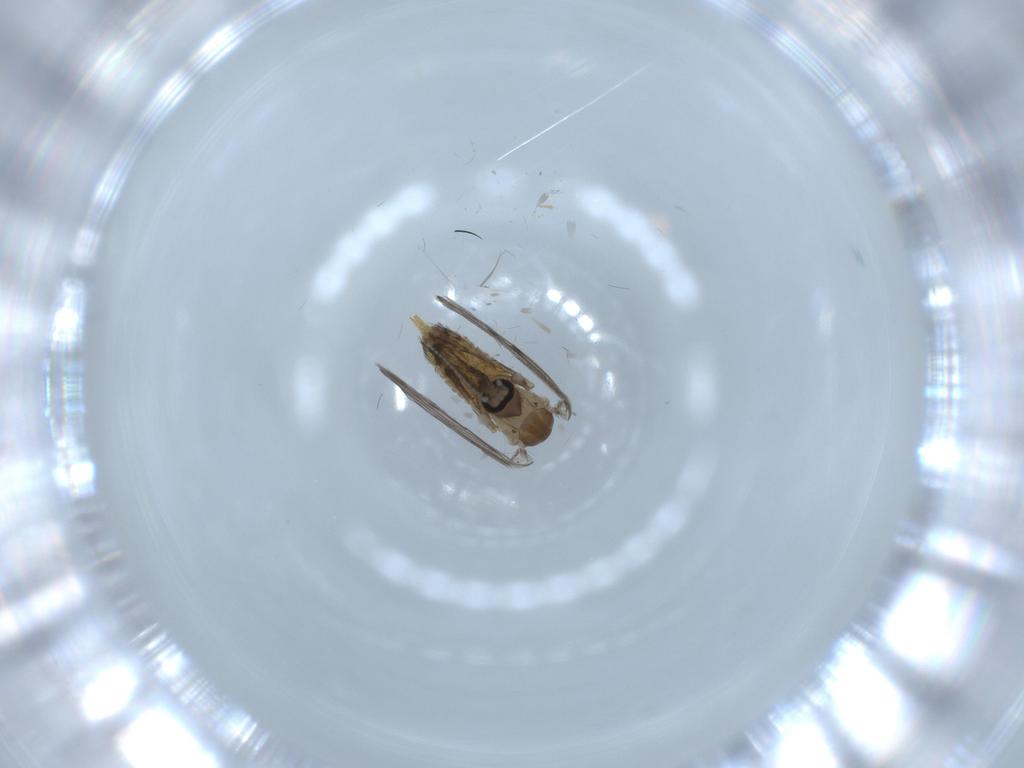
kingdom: Animalia
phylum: Arthropoda
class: Insecta
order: Diptera
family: Psychodidae
